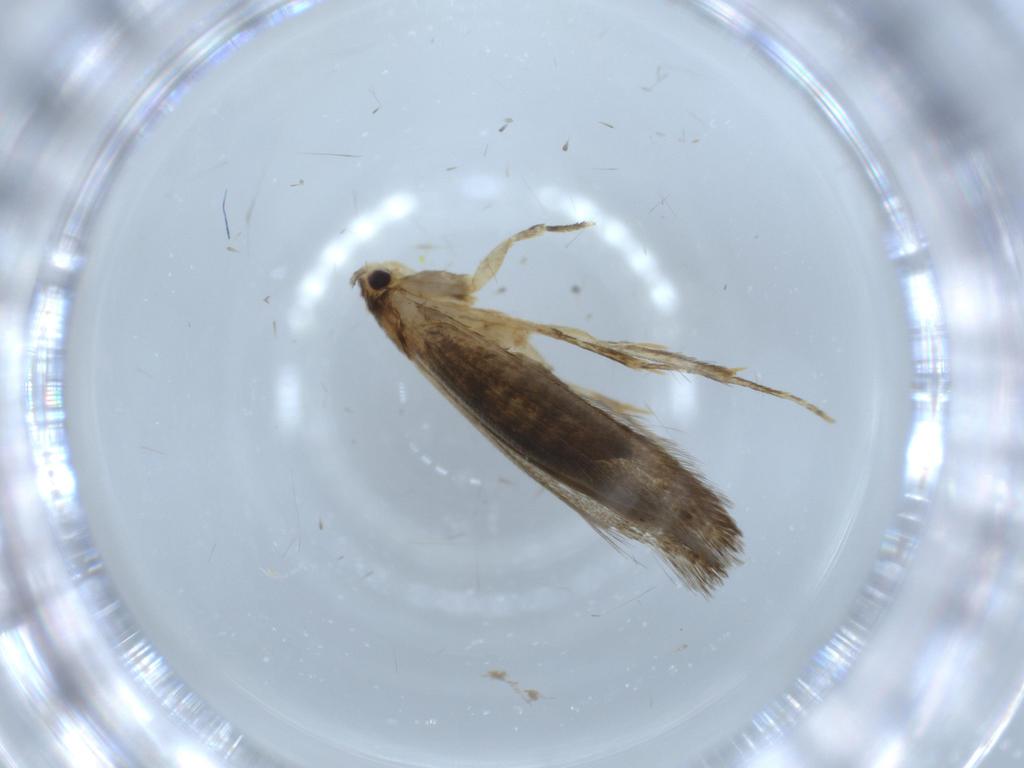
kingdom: Animalia
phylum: Arthropoda
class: Insecta
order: Lepidoptera
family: Tineidae
